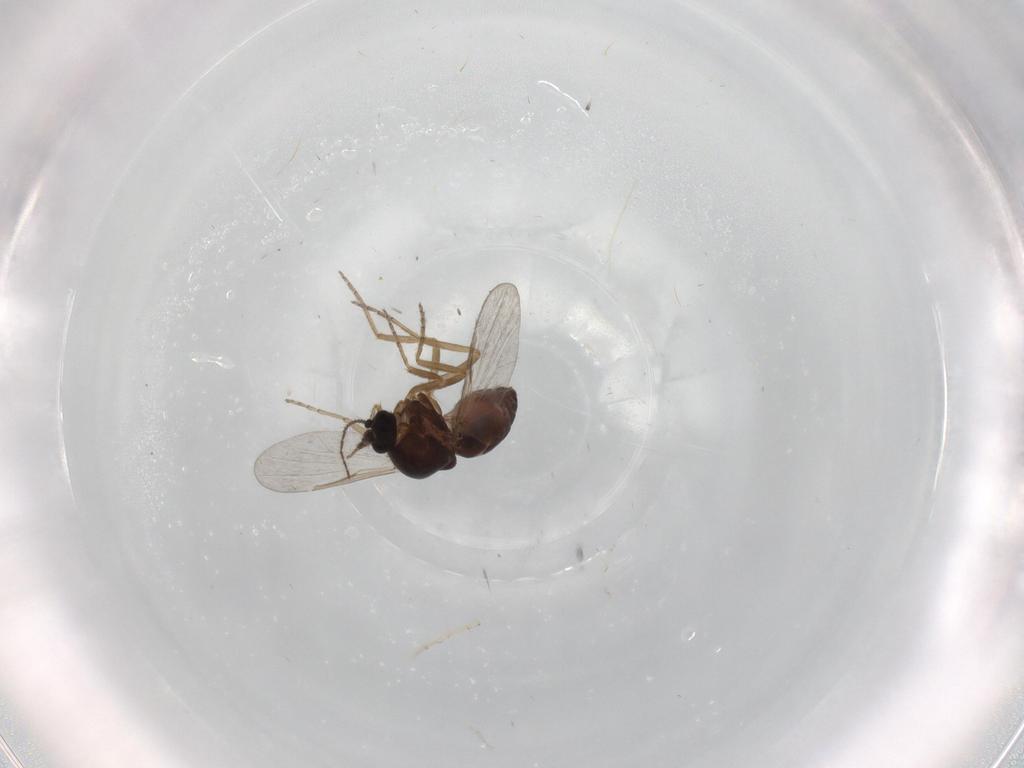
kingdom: Animalia
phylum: Arthropoda
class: Insecta
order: Diptera
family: Ceratopogonidae
